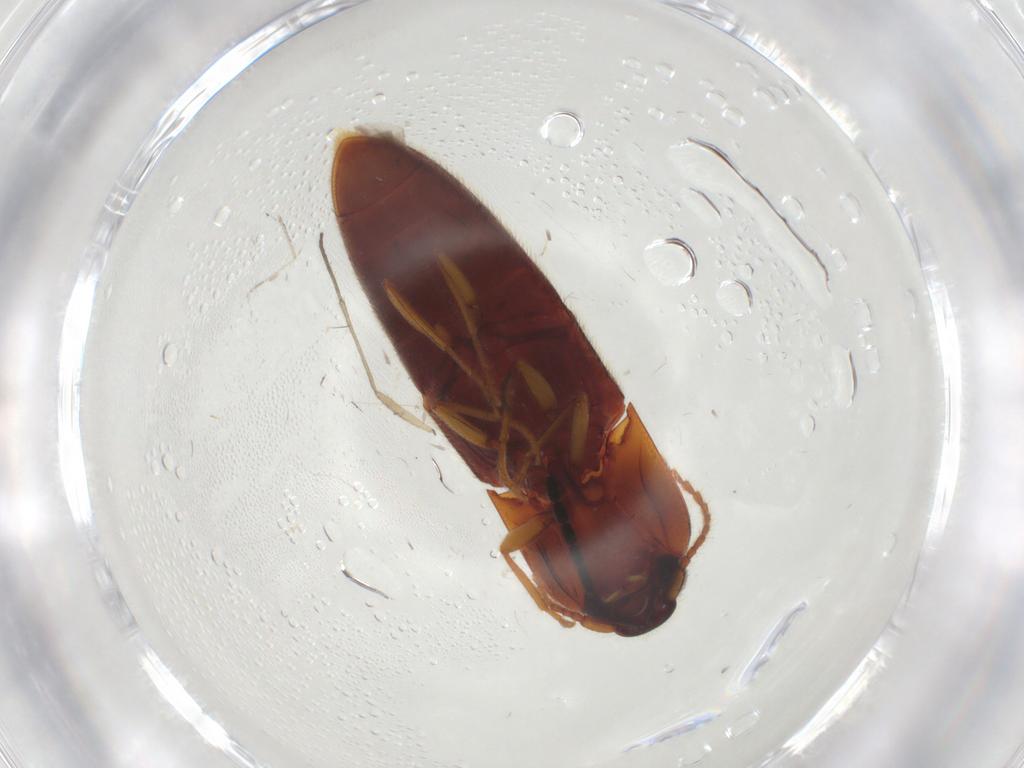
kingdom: Animalia
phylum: Arthropoda
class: Insecta
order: Coleoptera
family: Elateridae
